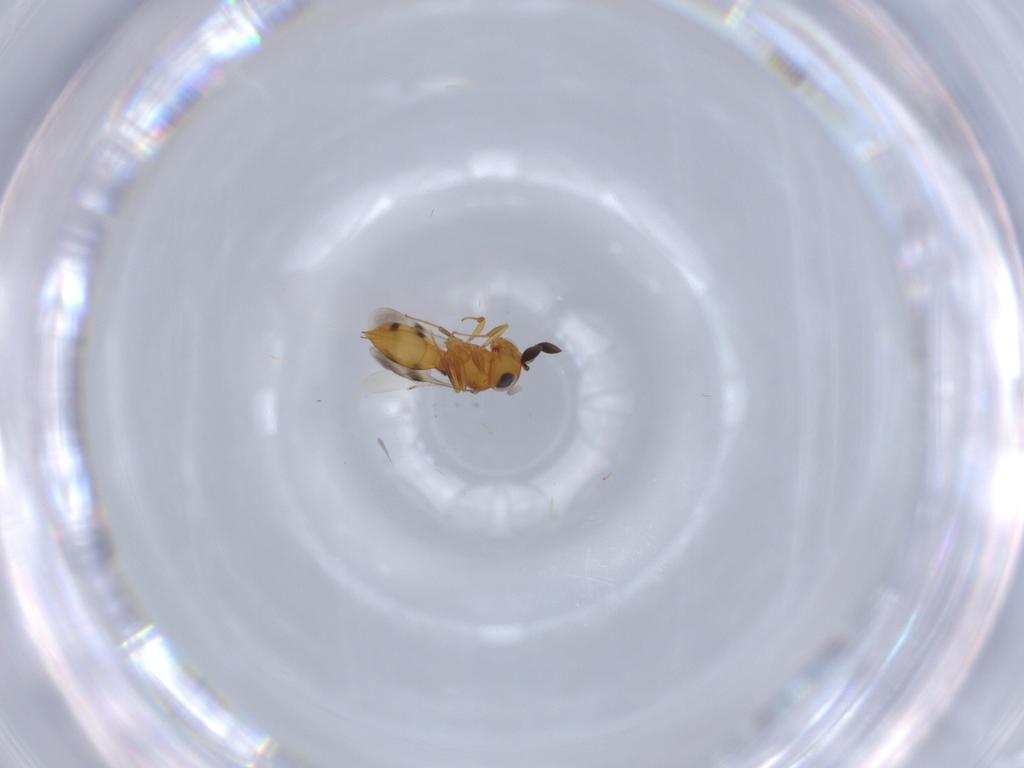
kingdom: Animalia
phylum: Arthropoda
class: Insecta
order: Hymenoptera
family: Scelionidae
